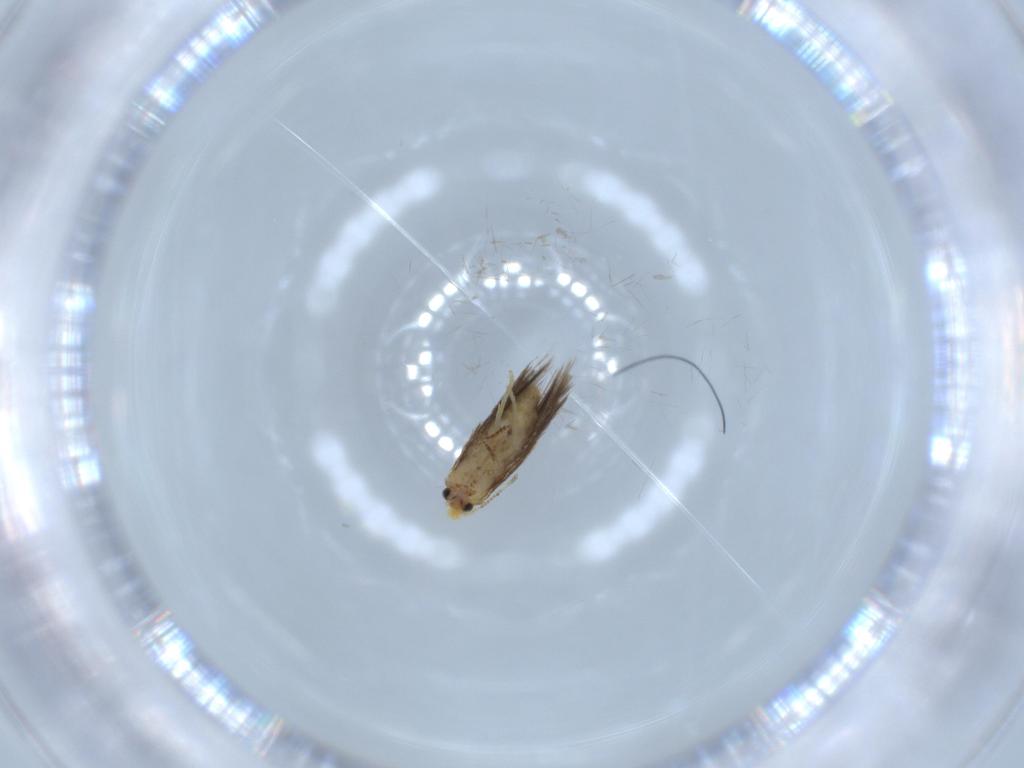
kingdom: Animalia
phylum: Arthropoda
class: Insecta
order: Lepidoptera
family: Nepticulidae
